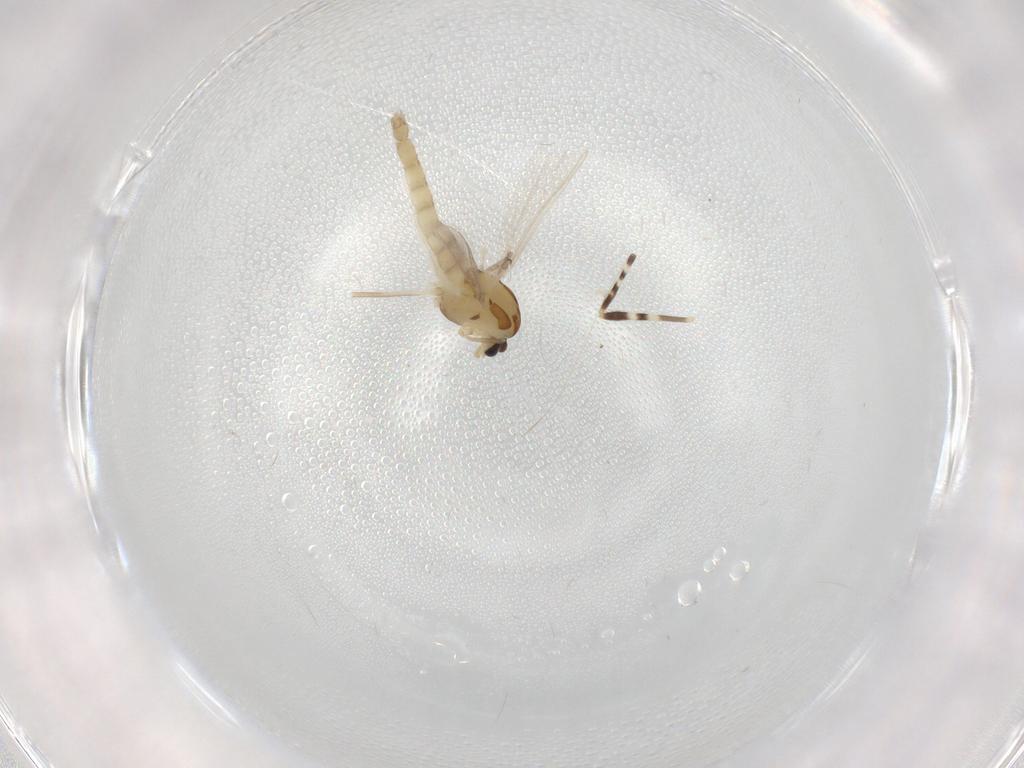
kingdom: Animalia
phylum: Arthropoda
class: Insecta
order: Diptera
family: Chironomidae
